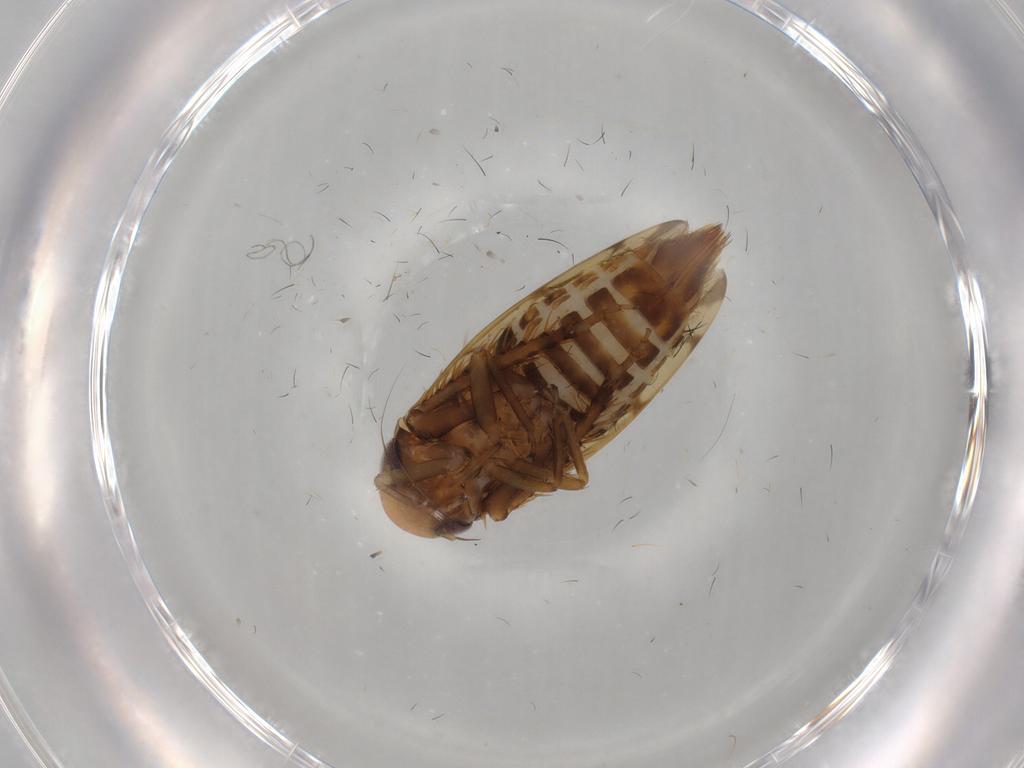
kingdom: Animalia
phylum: Arthropoda
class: Insecta
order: Hemiptera
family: Cicadellidae
